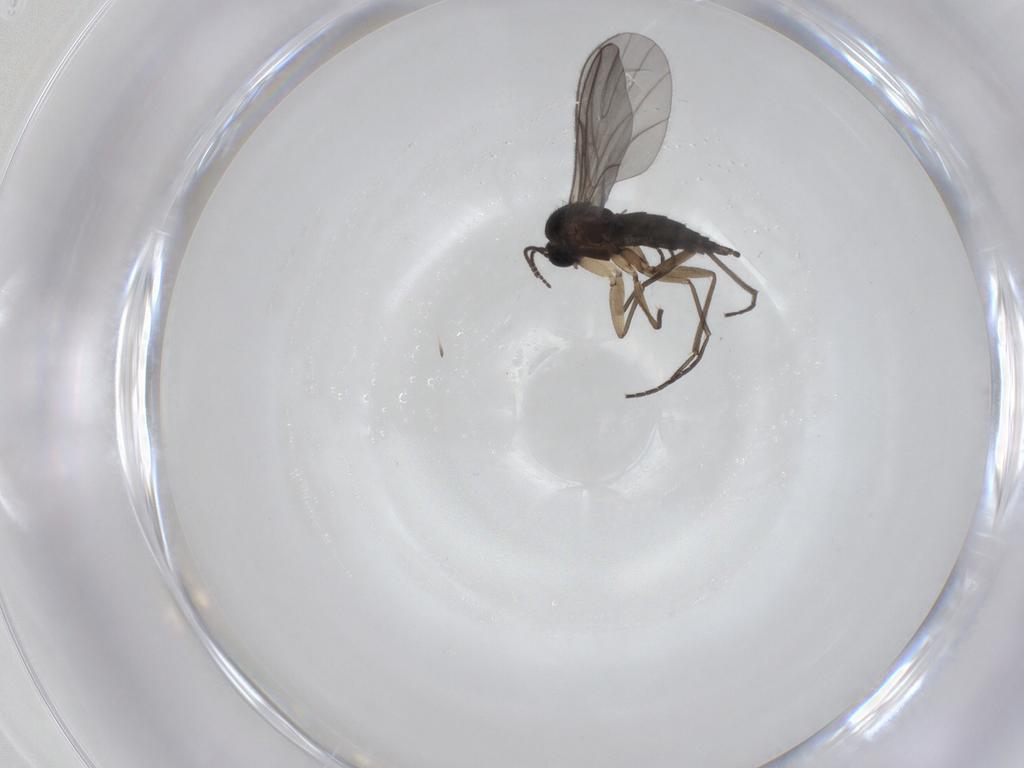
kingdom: Animalia
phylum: Arthropoda
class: Insecta
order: Diptera
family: Sciaridae
